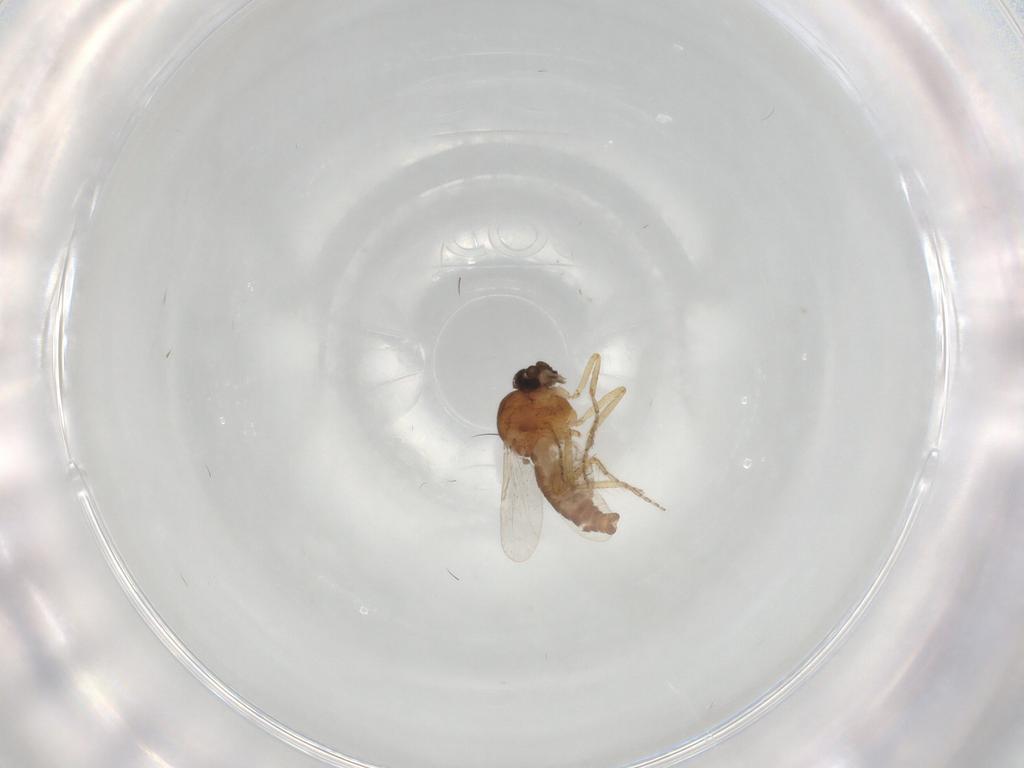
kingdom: Animalia
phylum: Arthropoda
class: Insecta
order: Diptera
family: Ceratopogonidae
